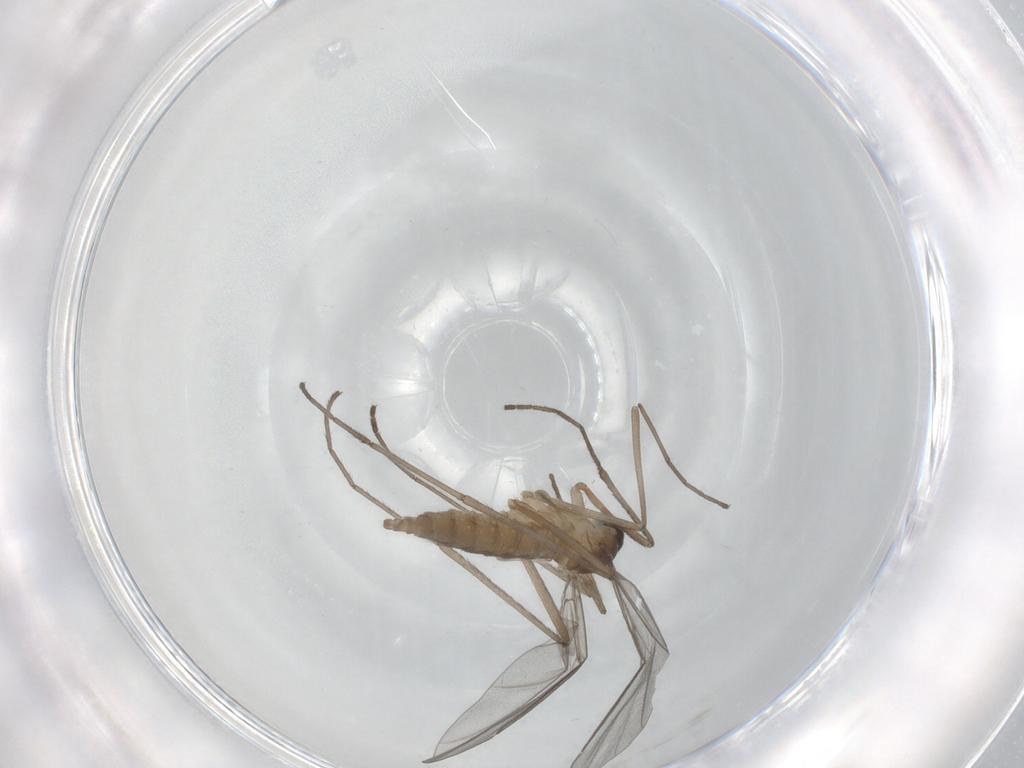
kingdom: Animalia
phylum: Arthropoda
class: Insecta
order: Diptera
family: Cecidomyiidae
